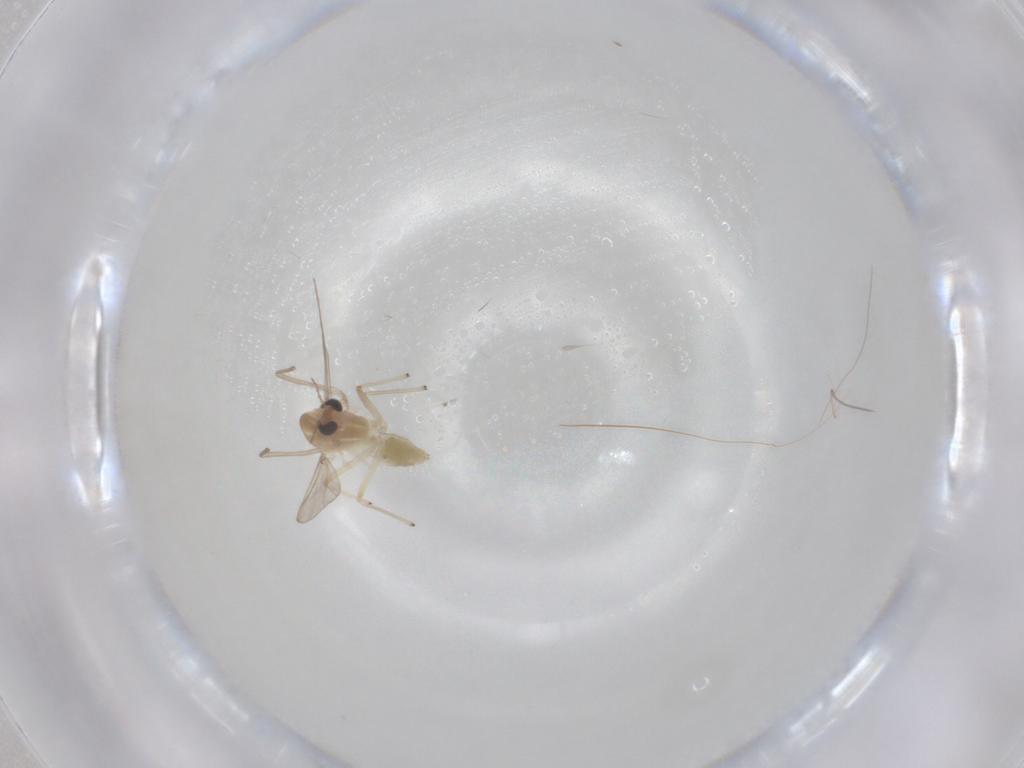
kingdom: Animalia
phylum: Arthropoda
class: Insecta
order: Diptera
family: Chironomidae
